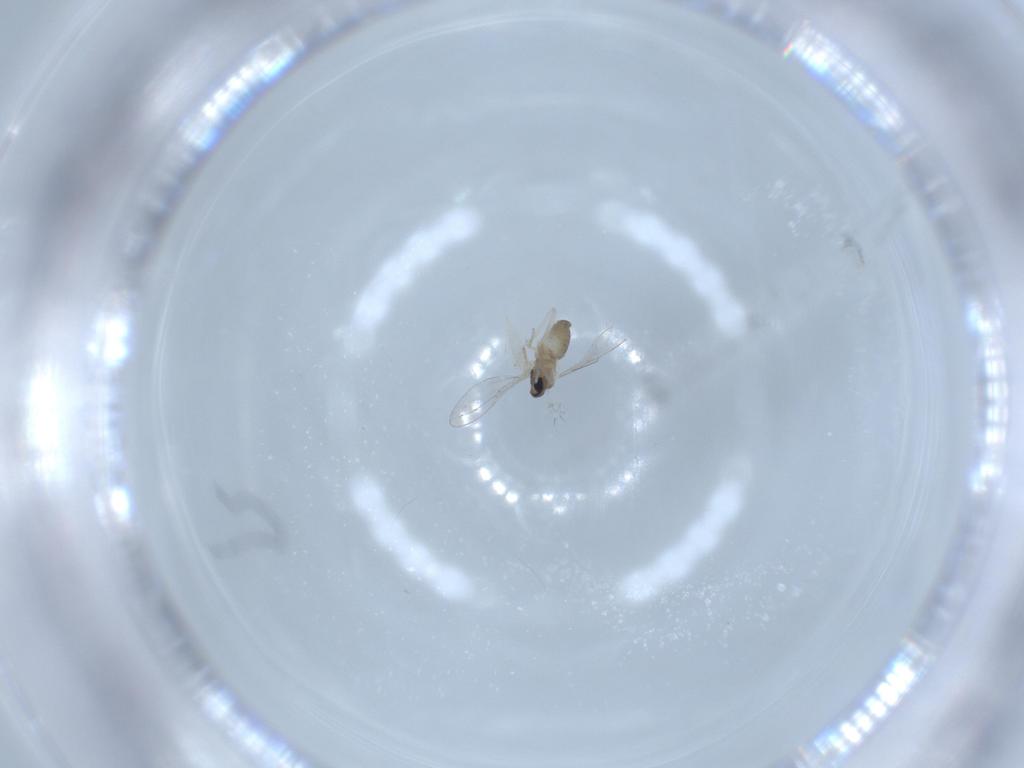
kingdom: Animalia
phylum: Arthropoda
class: Insecta
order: Diptera
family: Cecidomyiidae
